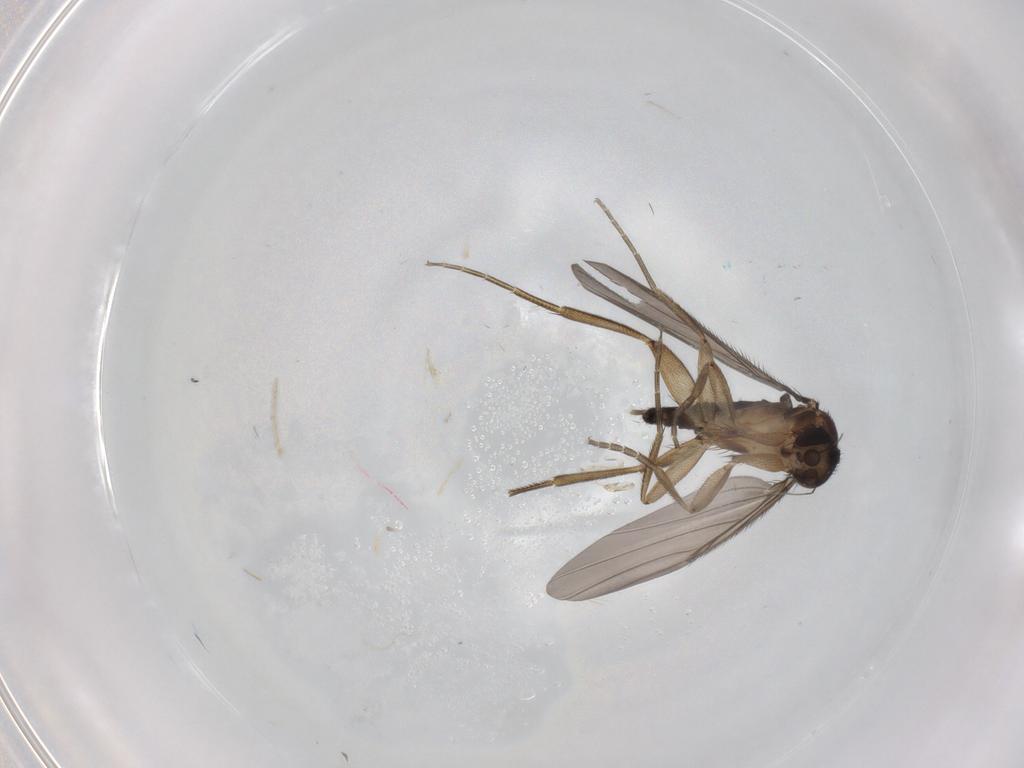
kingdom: Animalia
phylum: Arthropoda
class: Insecta
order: Diptera
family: Phoridae
